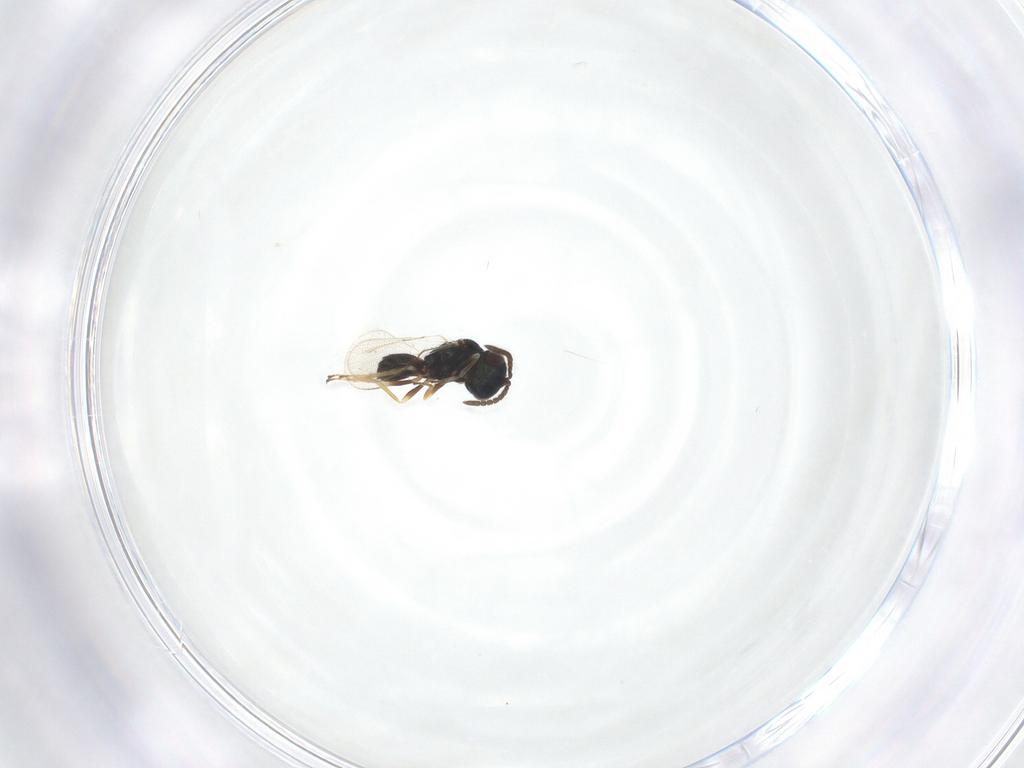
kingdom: Animalia
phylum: Arthropoda
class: Insecta
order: Hymenoptera
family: Pteromalidae
